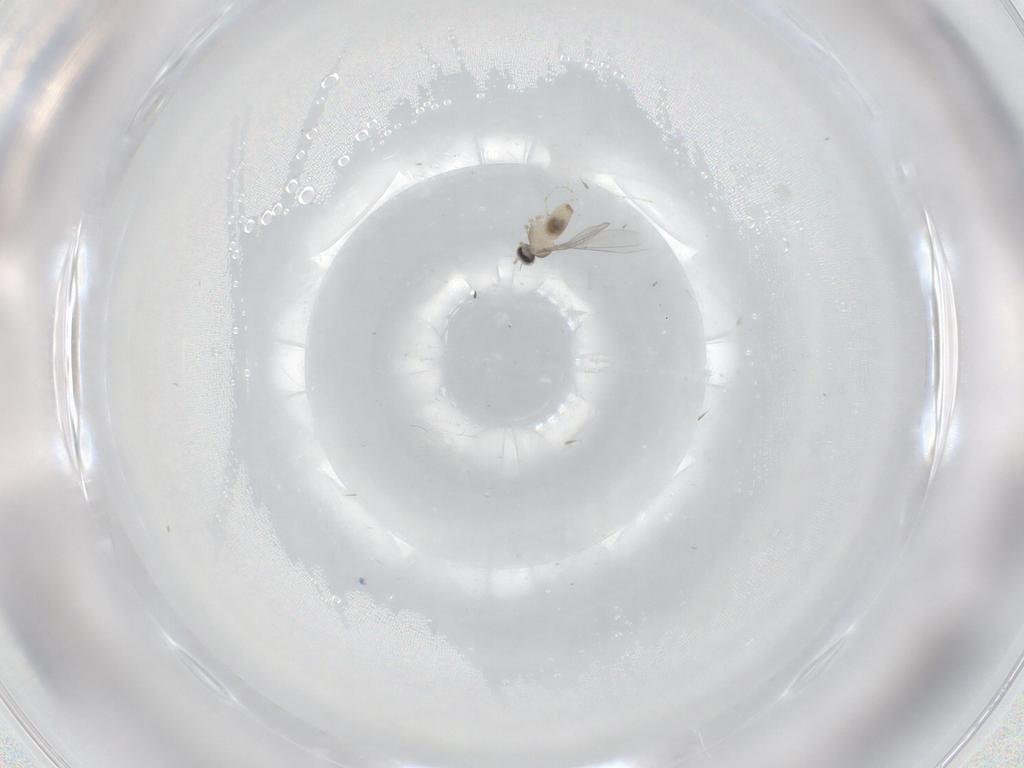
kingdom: Animalia
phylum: Arthropoda
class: Insecta
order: Diptera
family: Cecidomyiidae
